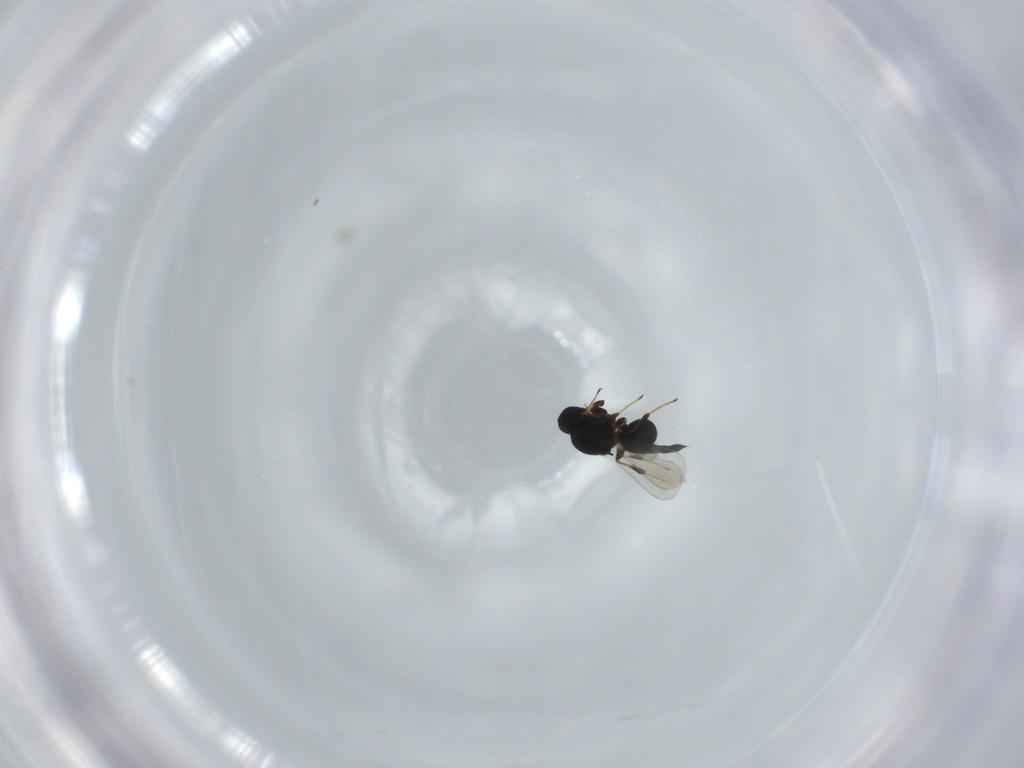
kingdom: Animalia
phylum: Arthropoda
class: Insecta
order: Hymenoptera
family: Platygastridae
